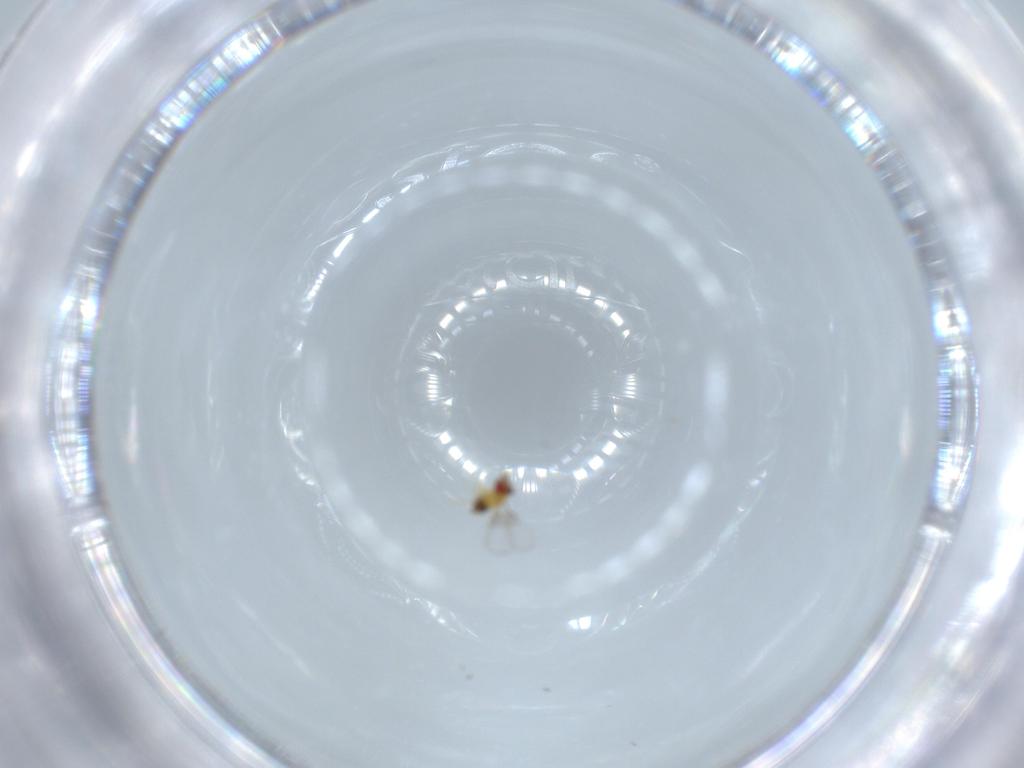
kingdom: Animalia
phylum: Arthropoda
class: Insecta
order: Hymenoptera
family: Trichogrammatidae
